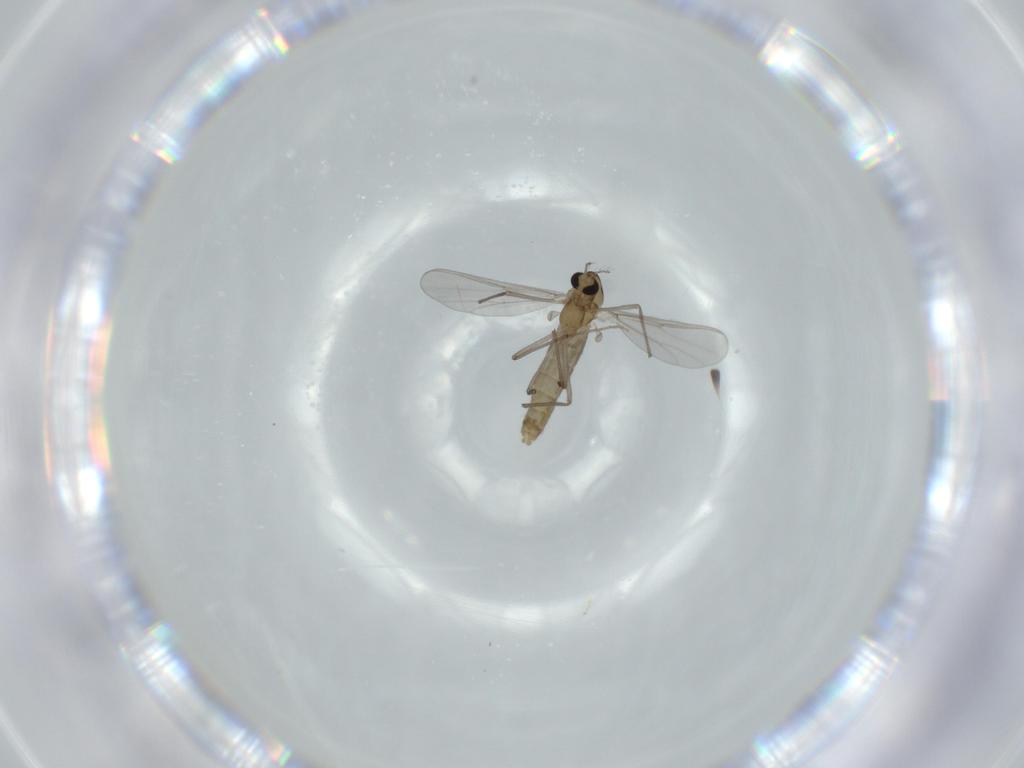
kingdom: Animalia
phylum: Arthropoda
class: Insecta
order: Diptera
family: Chironomidae
